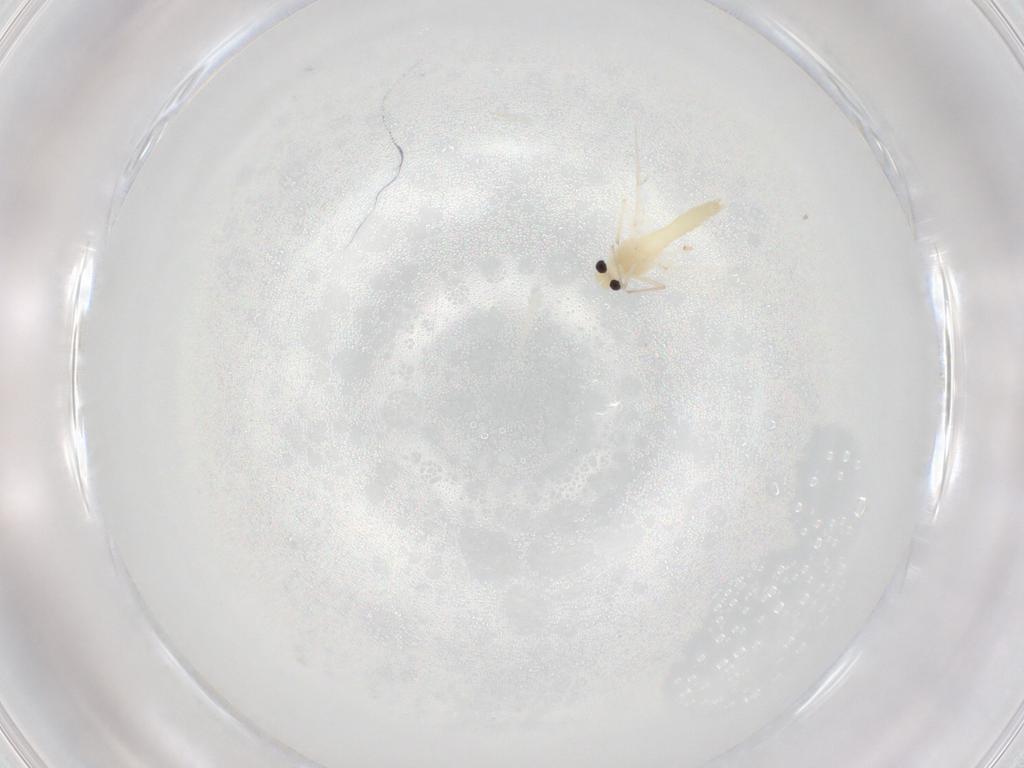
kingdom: Animalia
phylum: Arthropoda
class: Insecta
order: Diptera
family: Chironomidae
